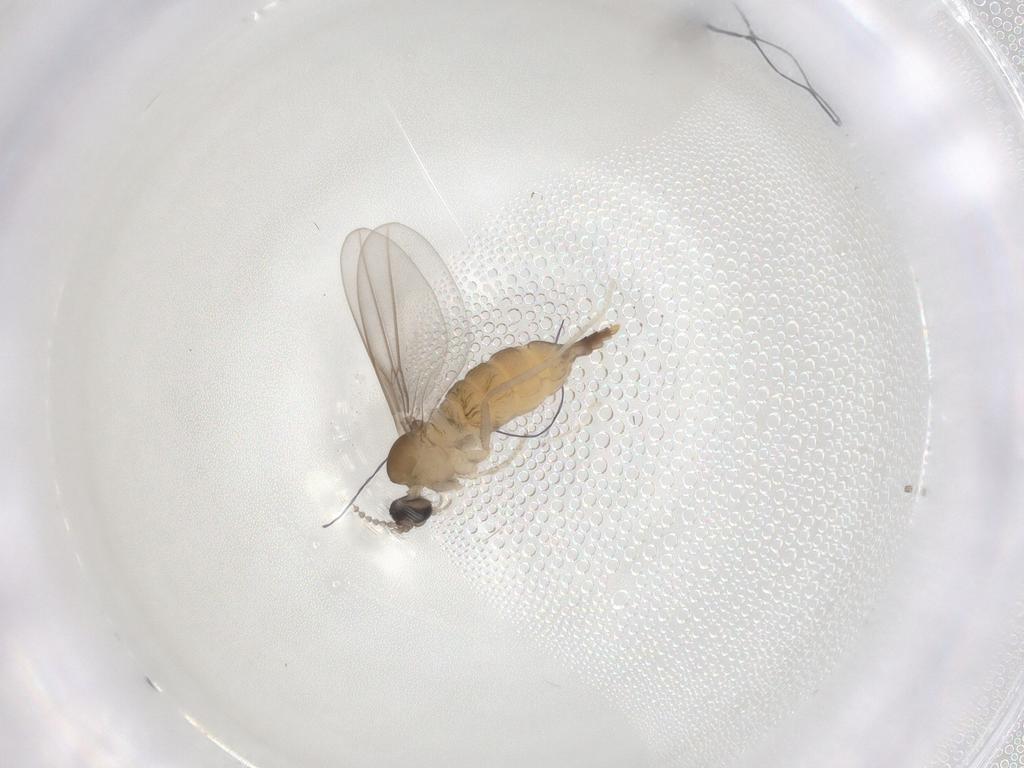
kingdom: Animalia
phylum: Arthropoda
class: Insecta
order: Diptera
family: Cecidomyiidae
